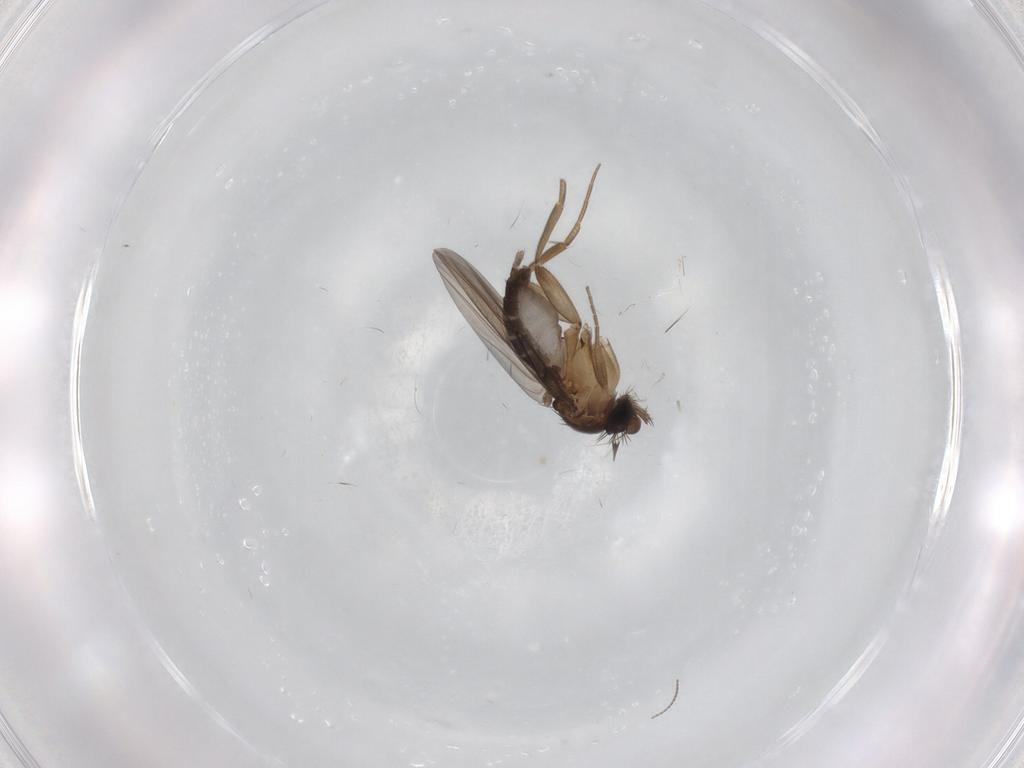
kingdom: Animalia
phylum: Arthropoda
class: Insecta
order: Diptera
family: Cecidomyiidae
